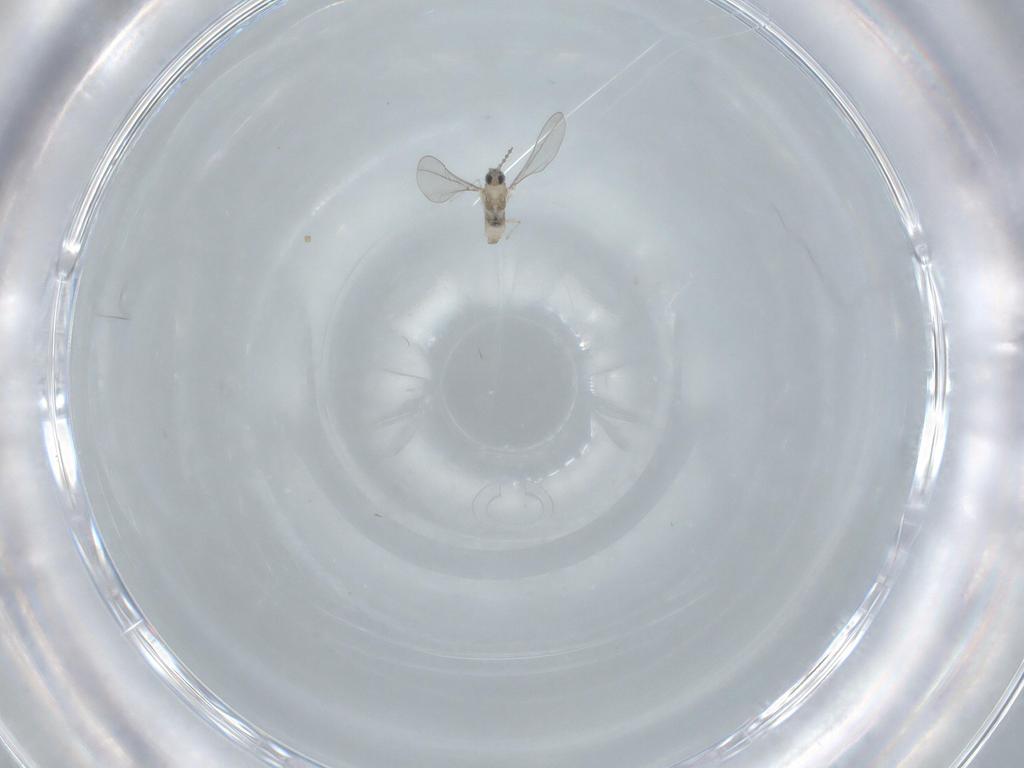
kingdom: Animalia
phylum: Arthropoda
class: Insecta
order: Diptera
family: Cecidomyiidae
